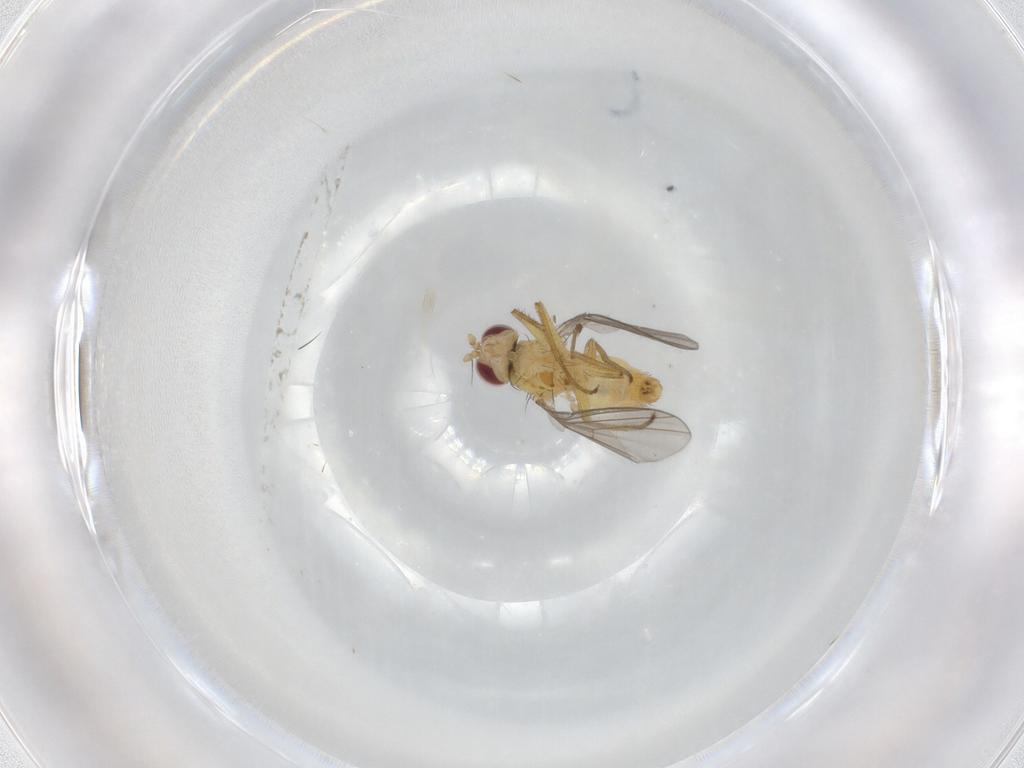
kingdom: Animalia
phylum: Arthropoda
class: Insecta
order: Diptera
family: Agromyzidae
